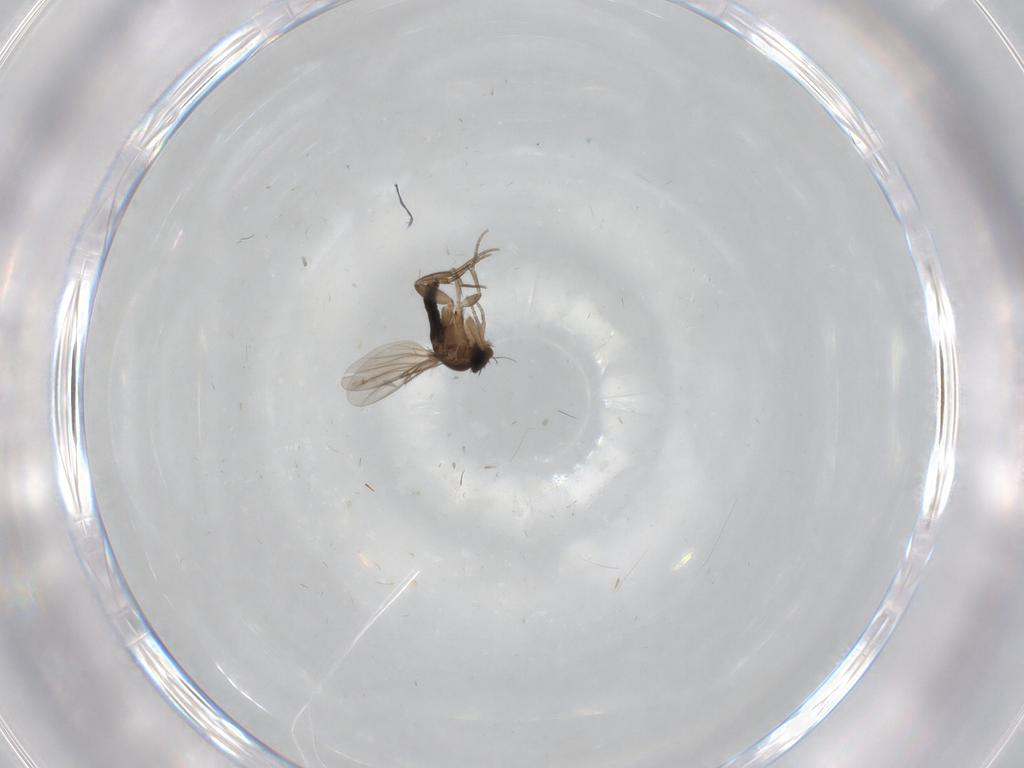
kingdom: Animalia
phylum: Arthropoda
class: Insecta
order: Diptera
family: Phoridae
